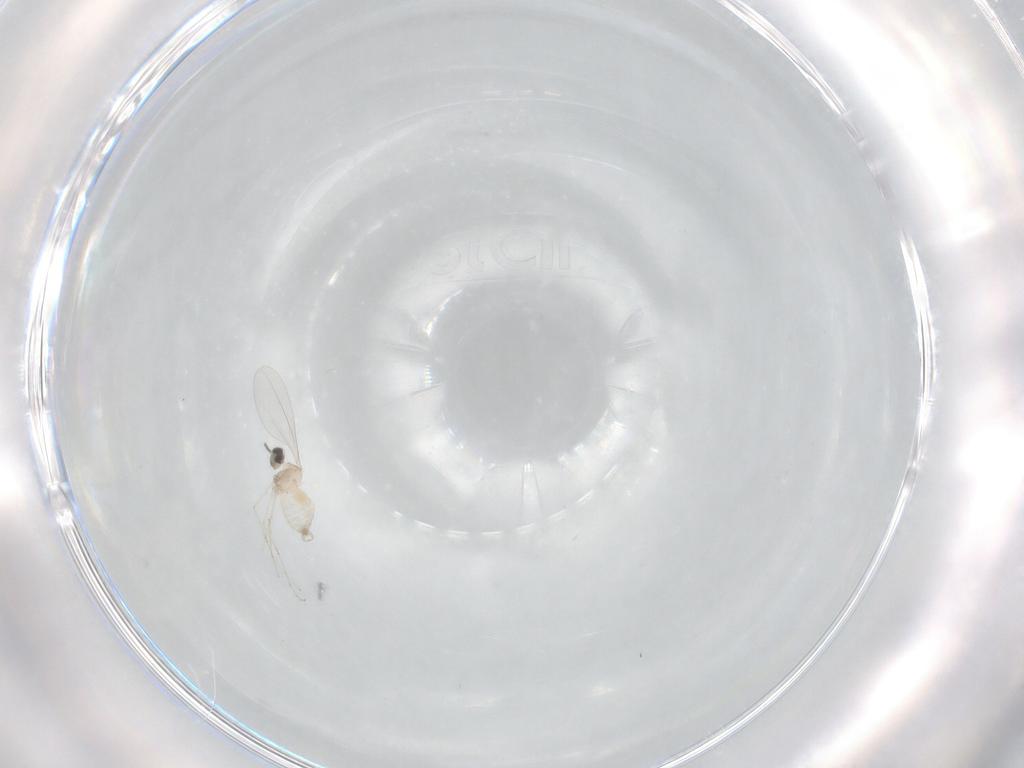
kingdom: Animalia
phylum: Arthropoda
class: Insecta
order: Diptera
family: Cecidomyiidae
